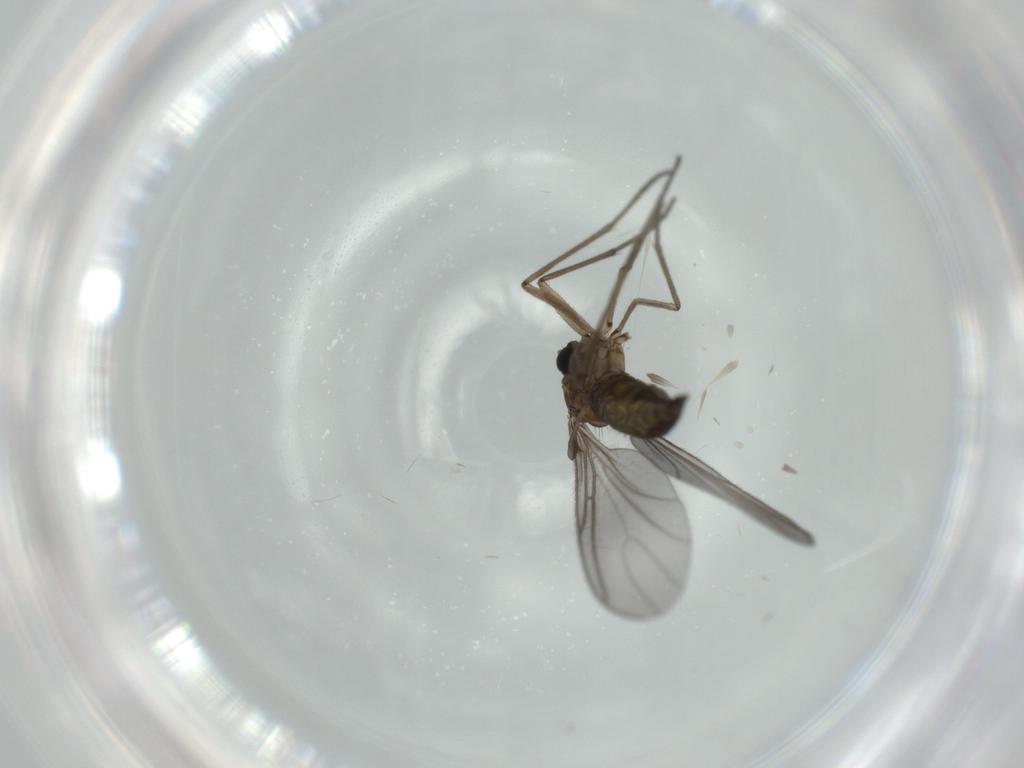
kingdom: Animalia
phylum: Arthropoda
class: Insecta
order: Diptera
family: Sciaridae
